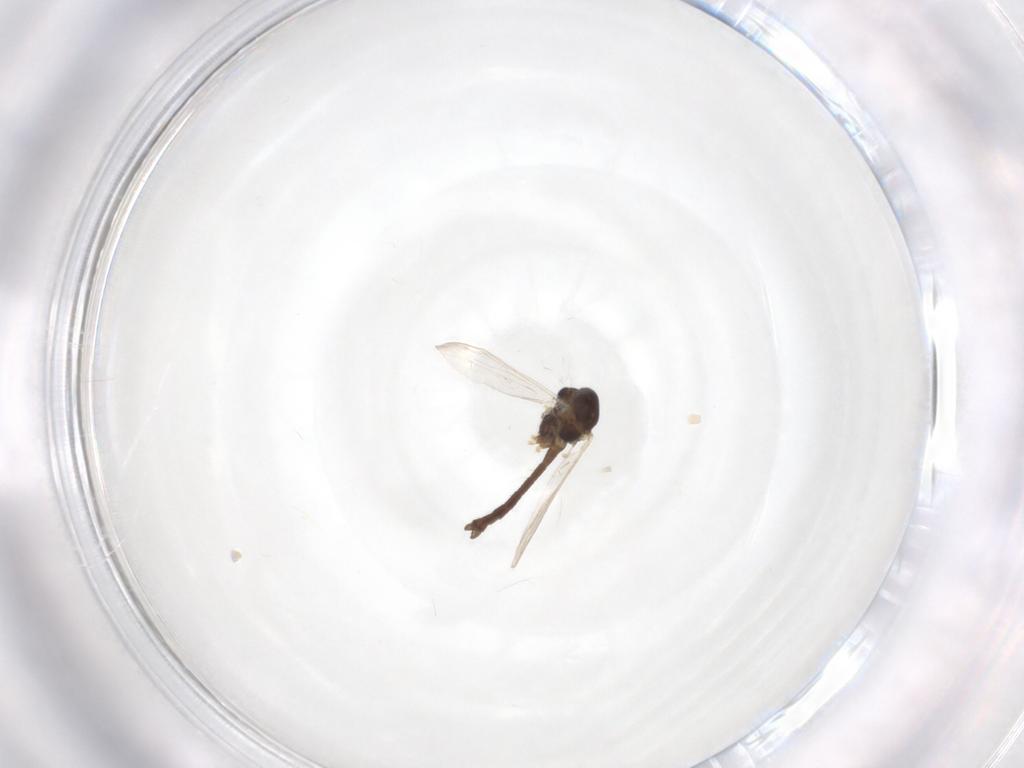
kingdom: Animalia
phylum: Arthropoda
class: Insecta
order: Diptera
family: Chironomidae
